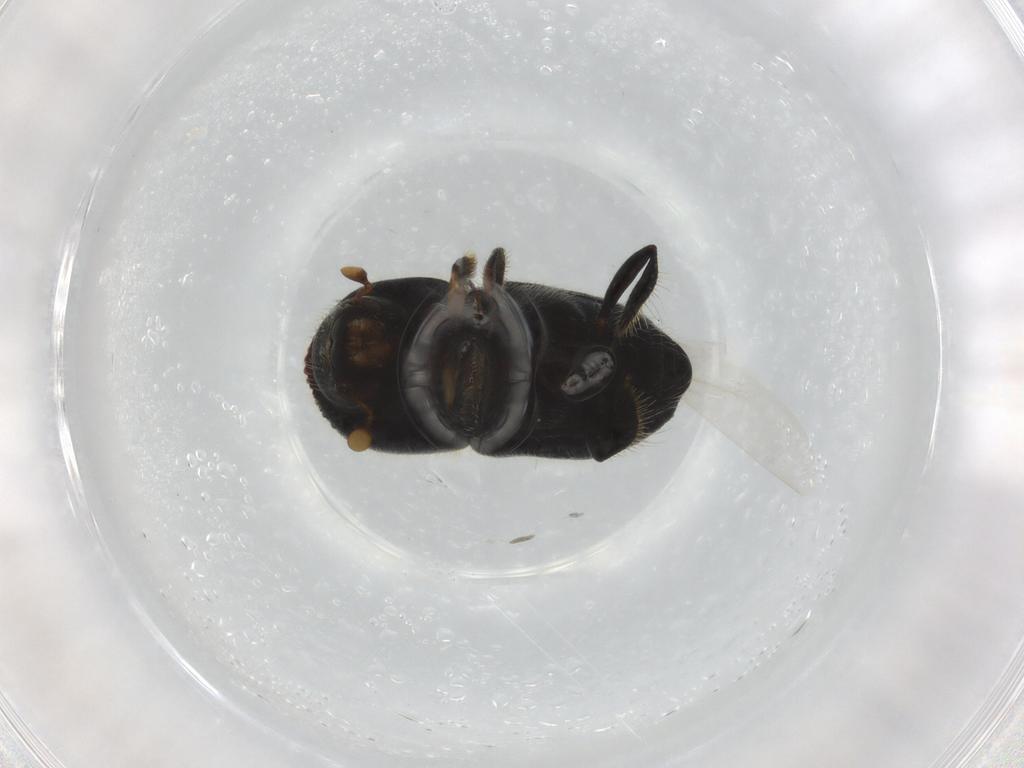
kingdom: Animalia
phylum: Arthropoda
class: Insecta
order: Coleoptera
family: Curculionidae
